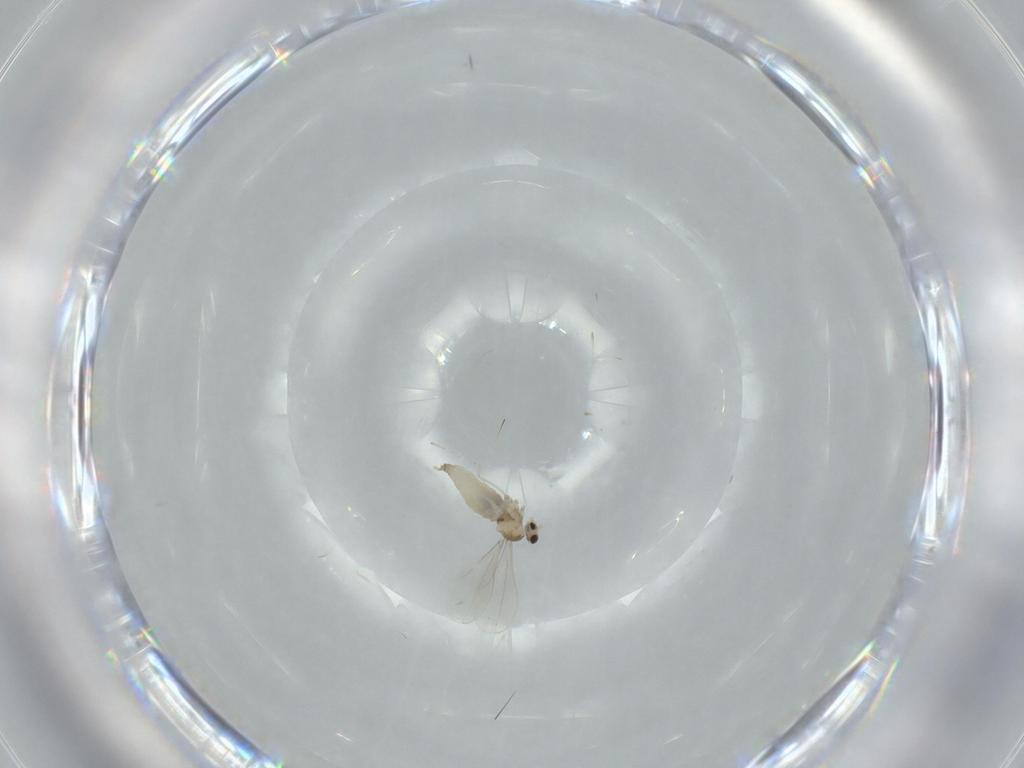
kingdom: Animalia
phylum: Arthropoda
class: Insecta
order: Diptera
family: Cecidomyiidae
